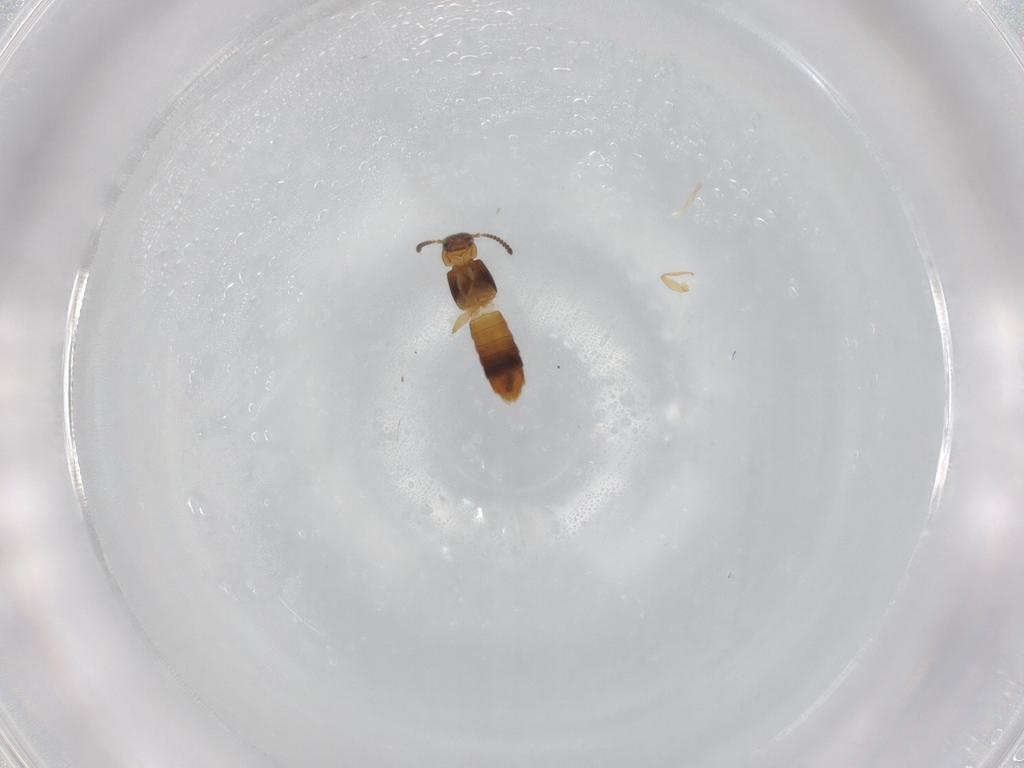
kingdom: Animalia
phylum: Arthropoda
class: Insecta
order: Coleoptera
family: Staphylinidae
